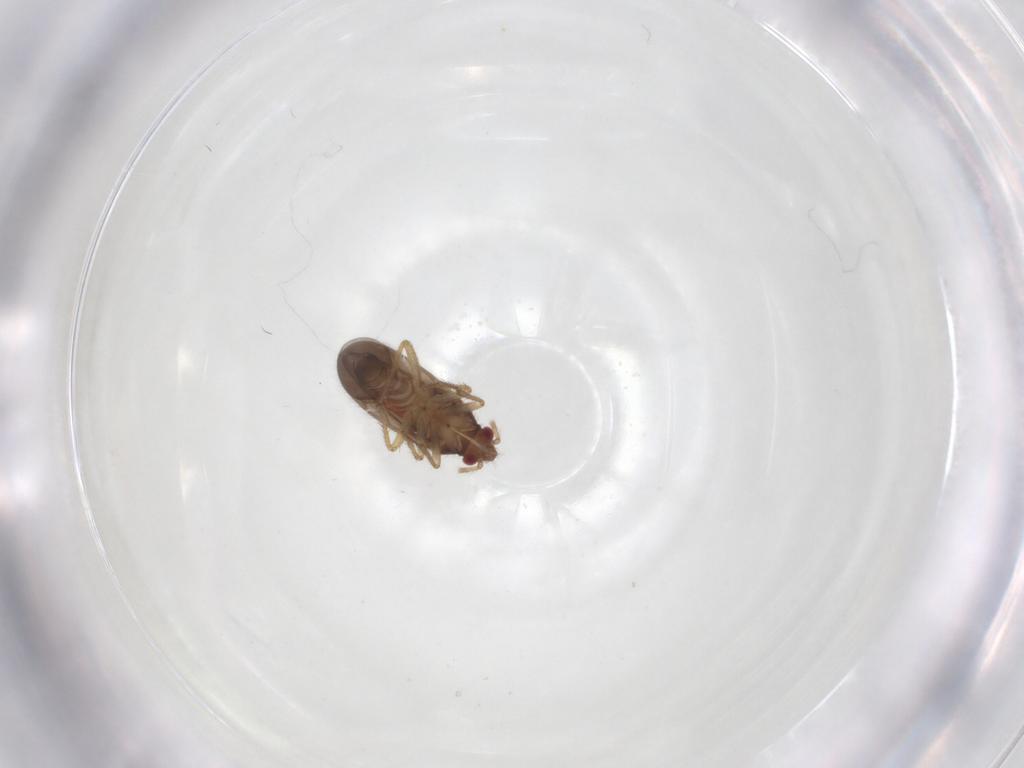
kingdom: Animalia
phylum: Arthropoda
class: Insecta
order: Hemiptera
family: Ceratocombidae
